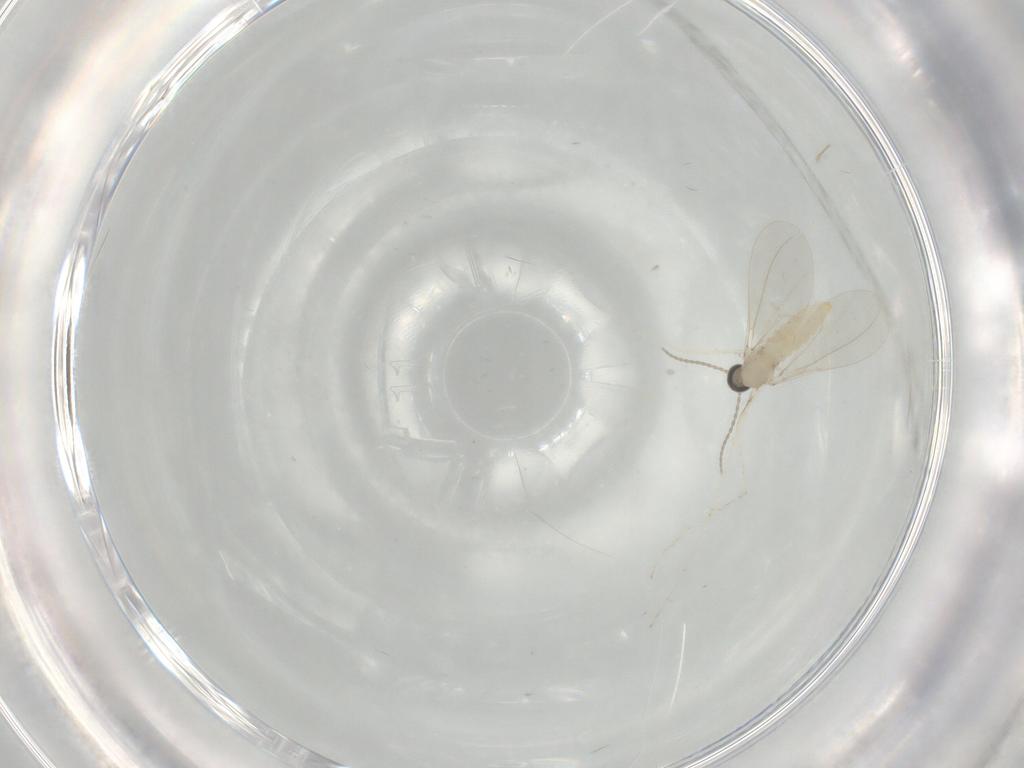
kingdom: Animalia
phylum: Arthropoda
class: Insecta
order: Diptera
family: Cecidomyiidae
